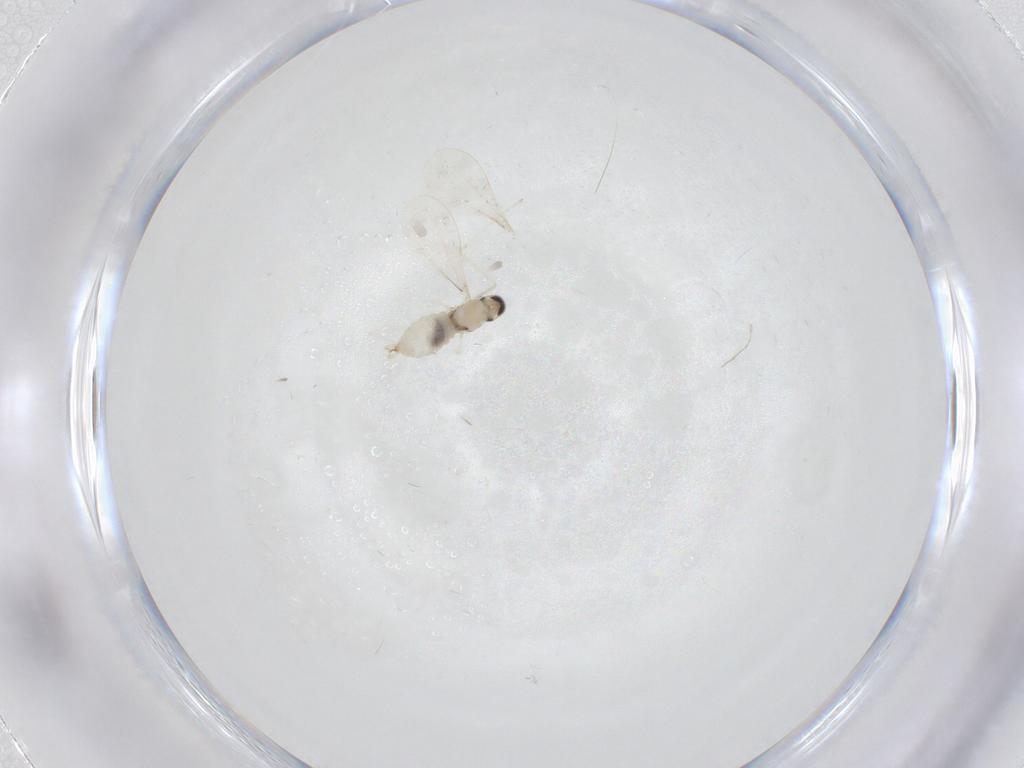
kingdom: Animalia
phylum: Arthropoda
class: Insecta
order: Diptera
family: Cecidomyiidae
